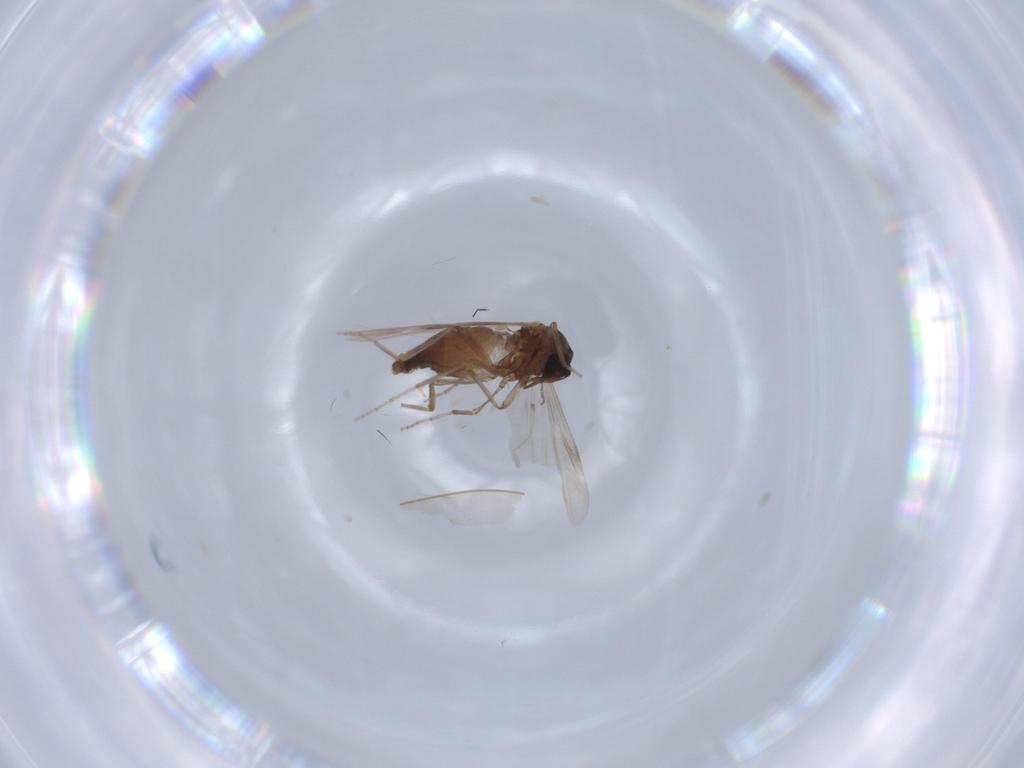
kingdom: Animalia
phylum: Arthropoda
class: Insecta
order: Diptera
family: Ceratopogonidae
